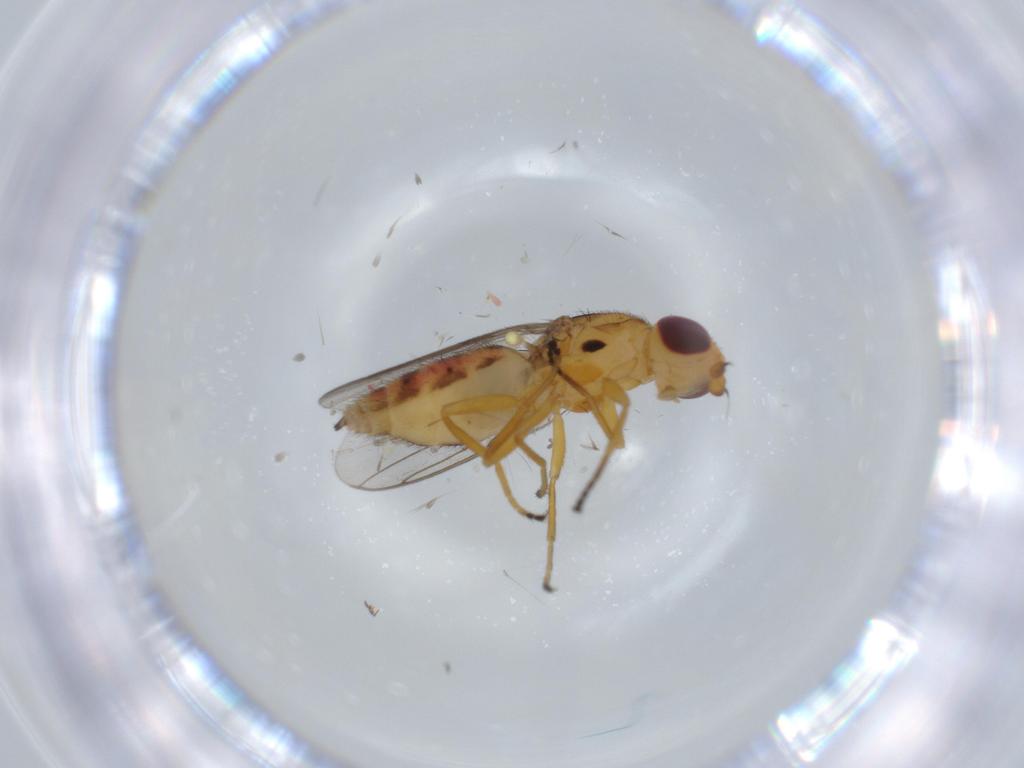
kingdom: Animalia
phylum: Arthropoda
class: Insecta
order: Diptera
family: Chloropidae
